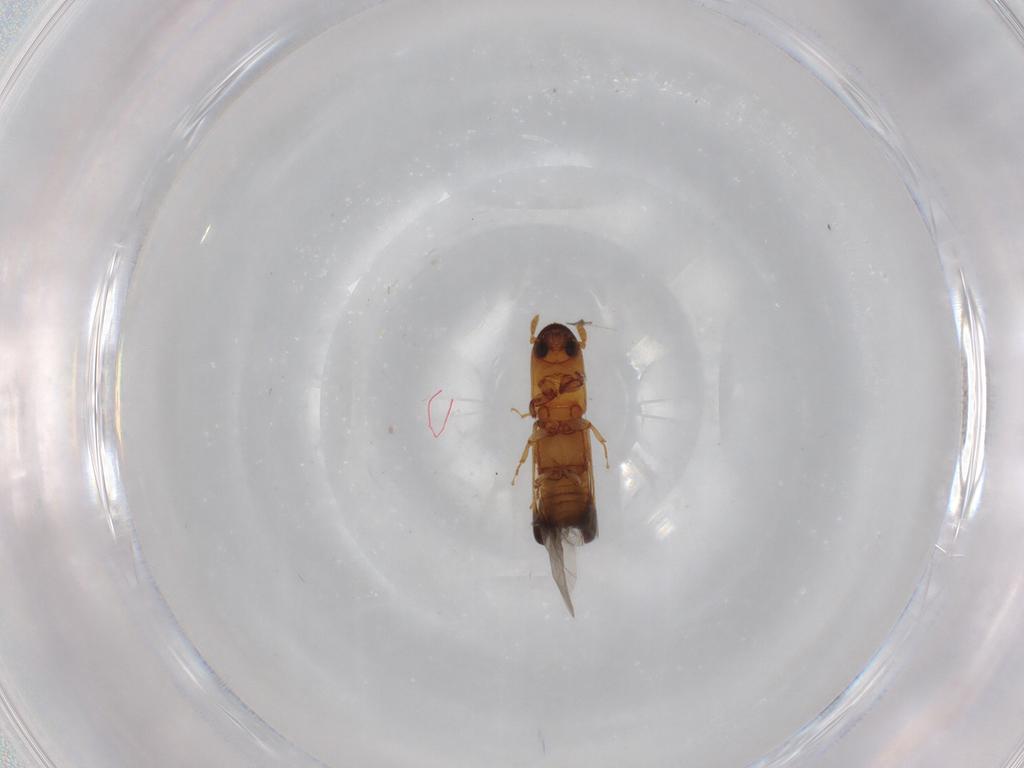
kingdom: Animalia
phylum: Arthropoda
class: Insecta
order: Coleoptera
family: Curculionidae
